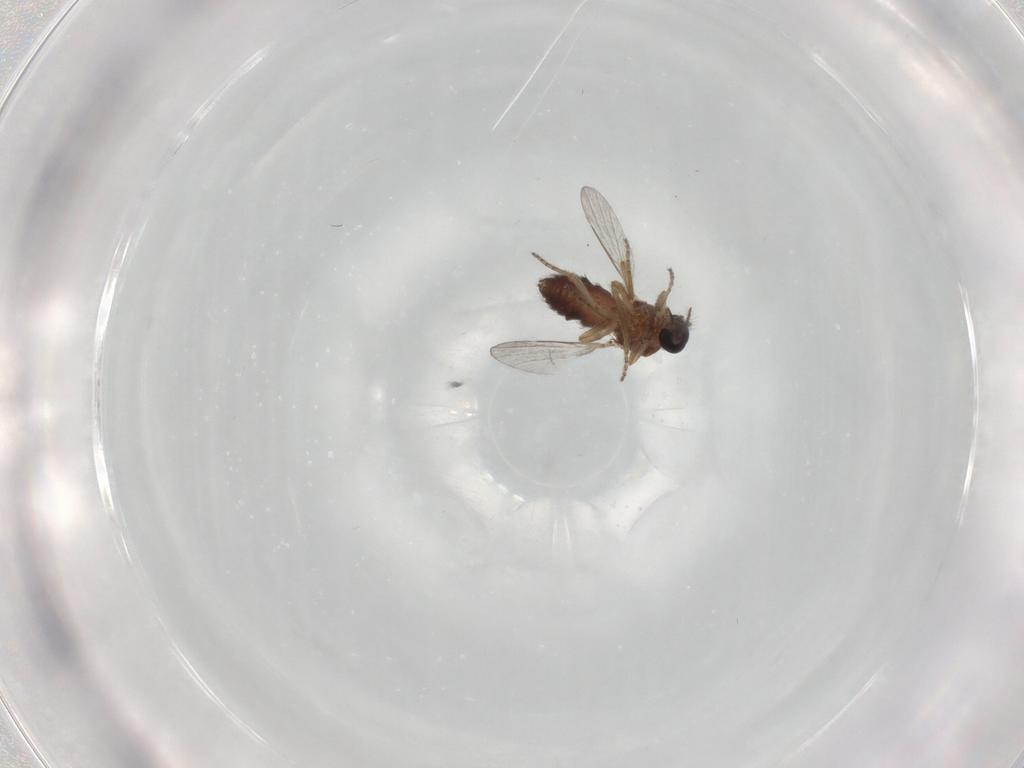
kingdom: Animalia
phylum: Arthropoda
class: Insecta
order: Diptera
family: Ceratopogonidae
